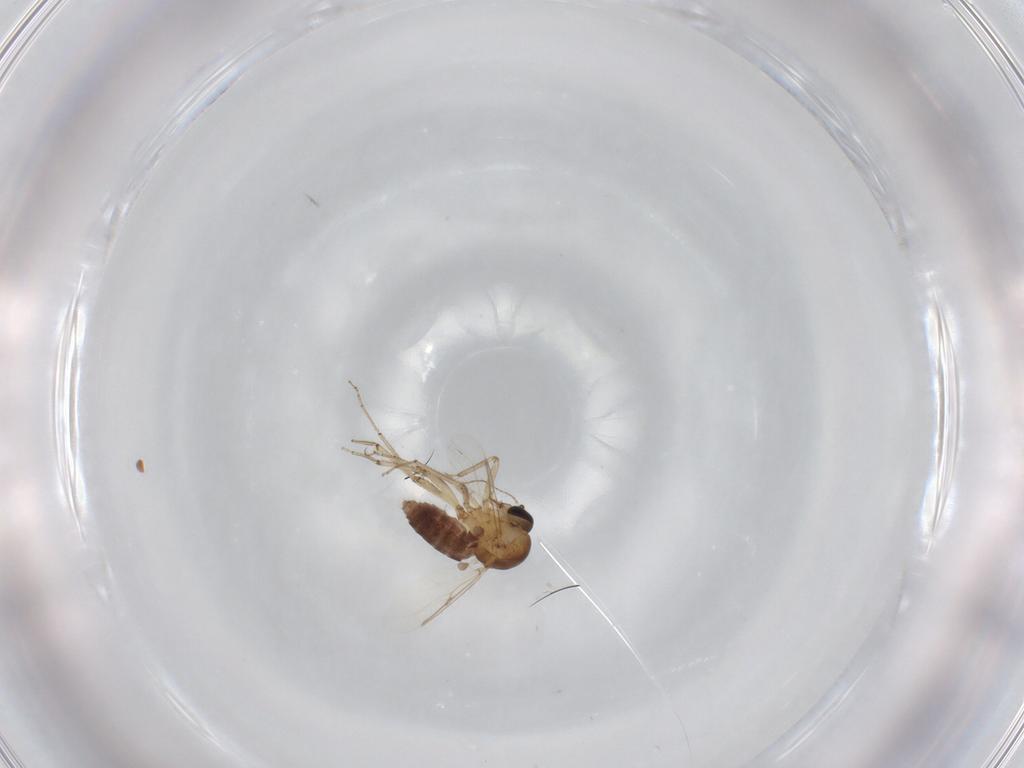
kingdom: Animalia
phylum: Arthropoda
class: Insecta
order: Diptera
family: Ceratopogonidae
